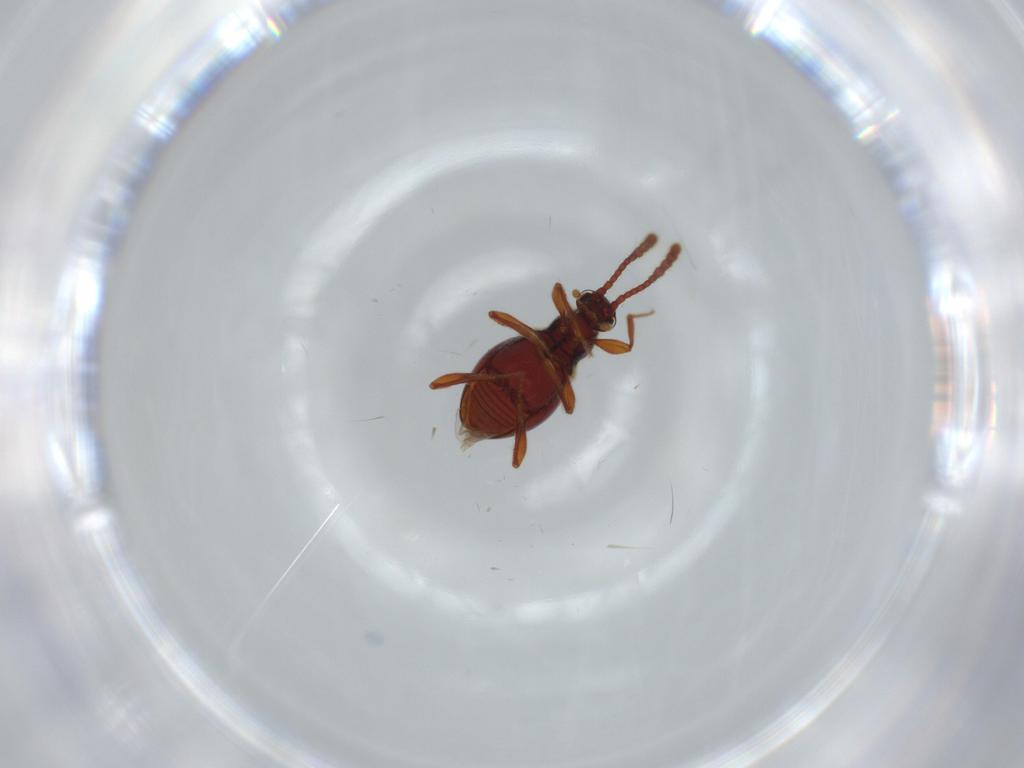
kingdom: Animalia
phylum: Arthropoda
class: Insecta
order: Coleoptera
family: Staphylinidae
